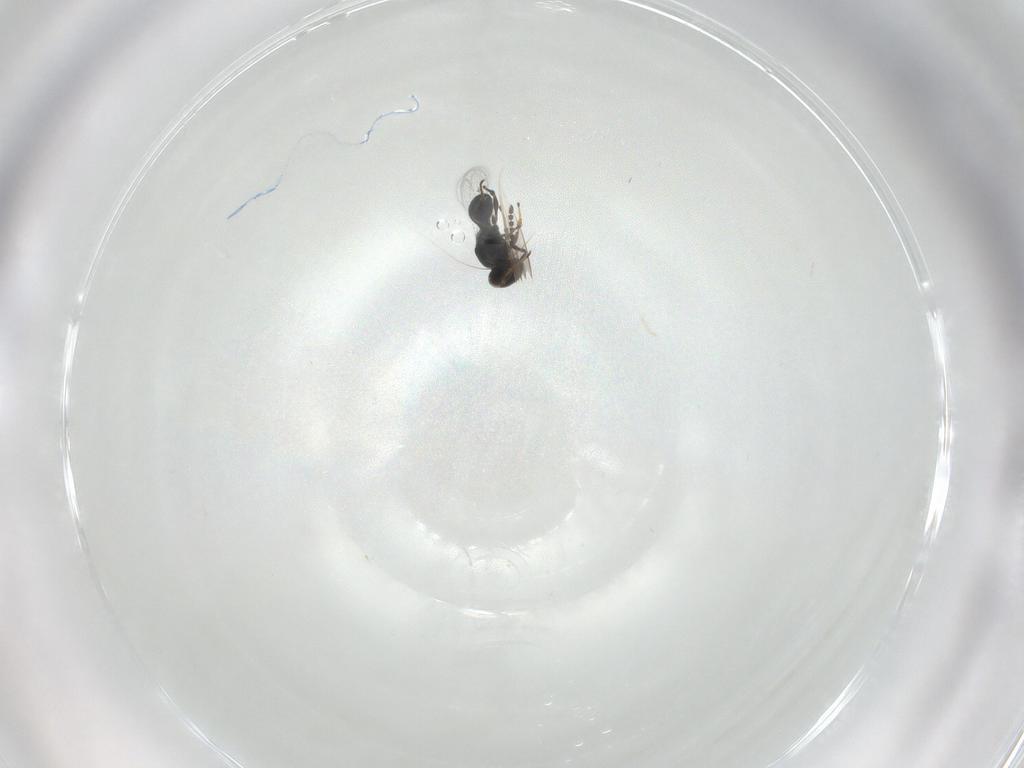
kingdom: Animalia
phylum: Arthropoda
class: Insecta
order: Hymenoptera
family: Platygastridae
